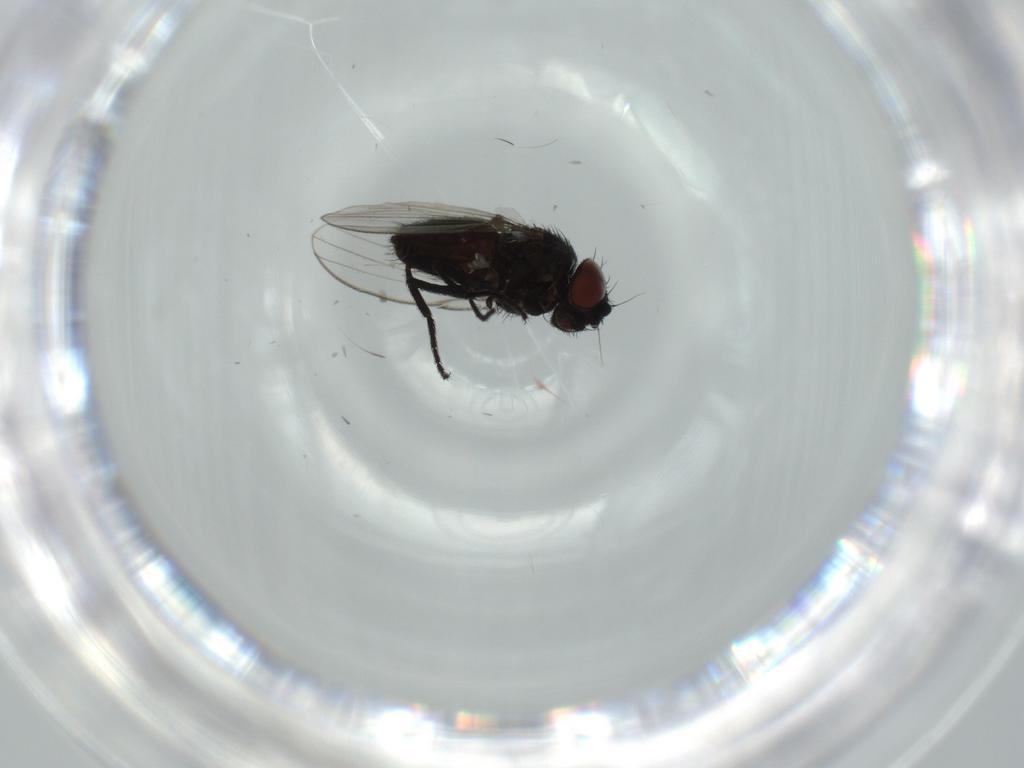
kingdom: Animalia
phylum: Arthropoda
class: Insecta
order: Diptera
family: Milichiidae
